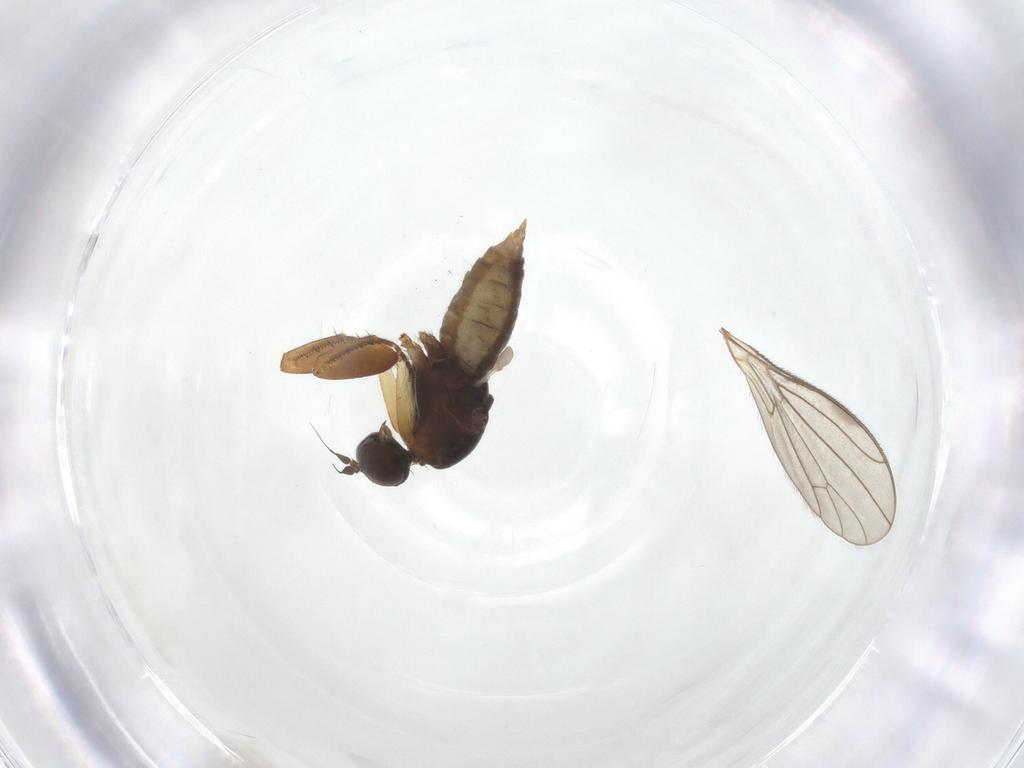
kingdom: Animalia
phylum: Arthropoda
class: Insecta
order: Diptera
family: Empididae
